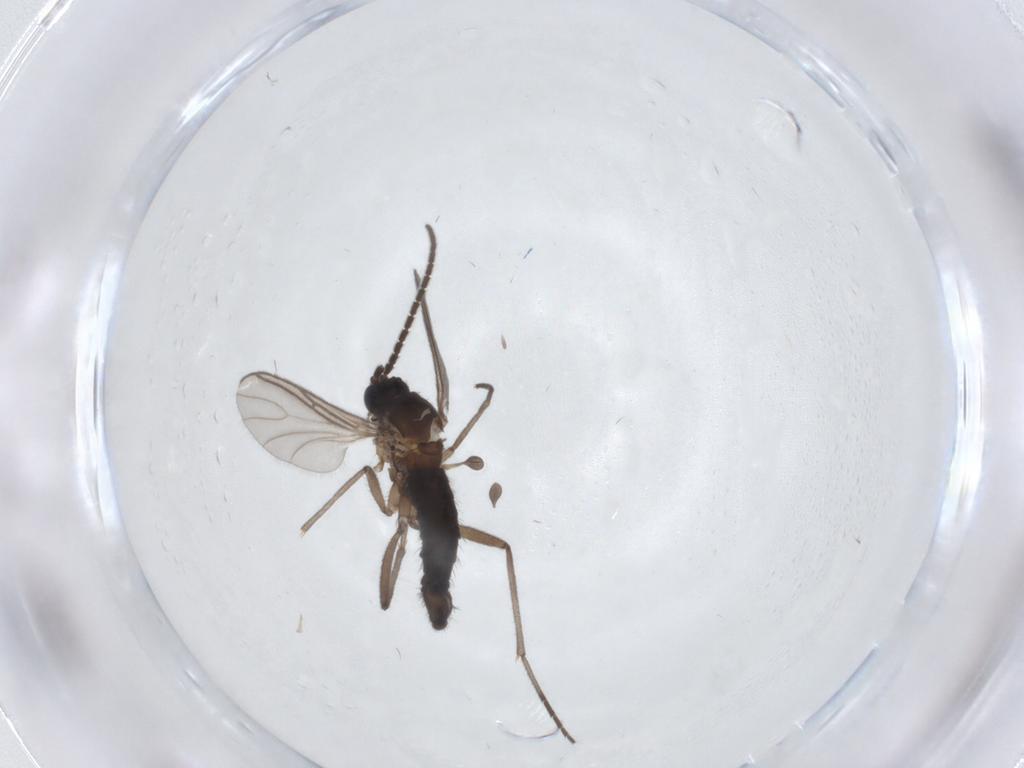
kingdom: Animalia
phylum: Arthropoda
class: Insecta
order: Diptera
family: Sciaridae
